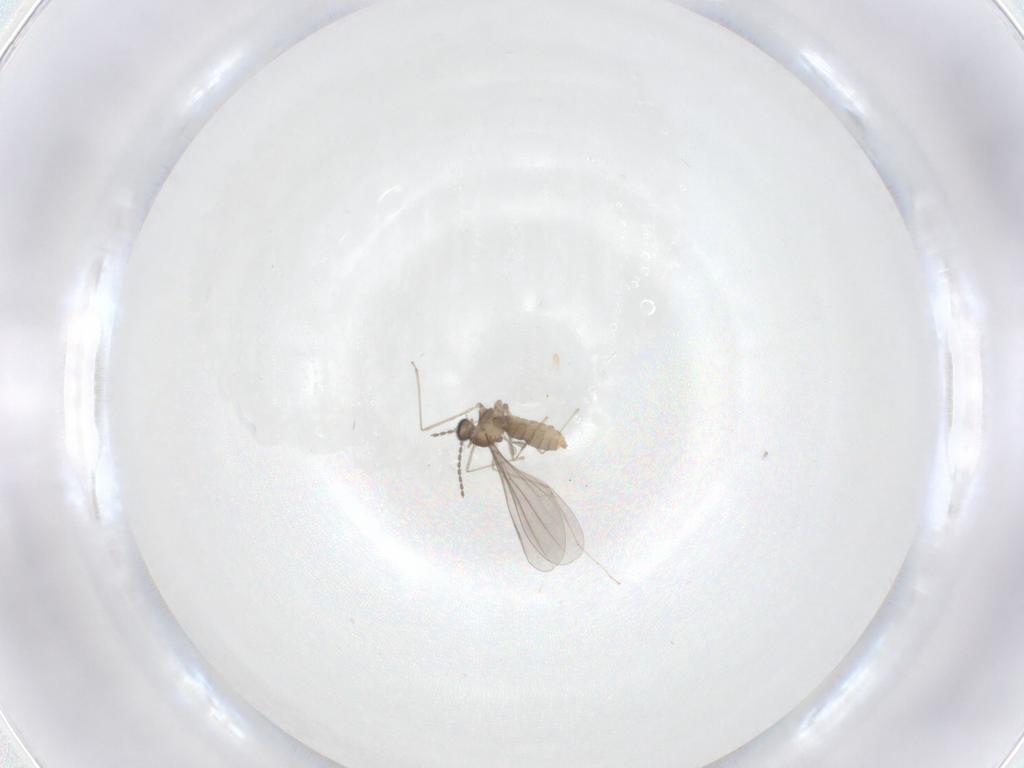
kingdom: Animalia
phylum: Arthropoda
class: Insecta
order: Diptera
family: Cecidomyiidae
